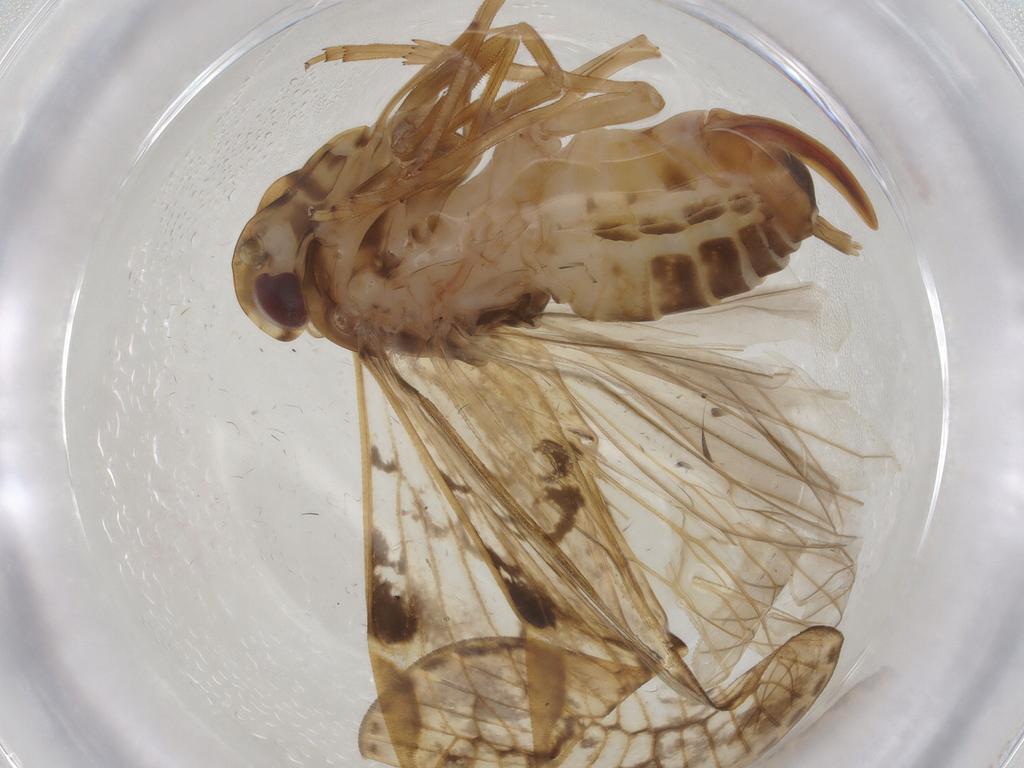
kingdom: Animalia
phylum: Arthropoda
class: Insecta
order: Hemiptera
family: Cixiidae
